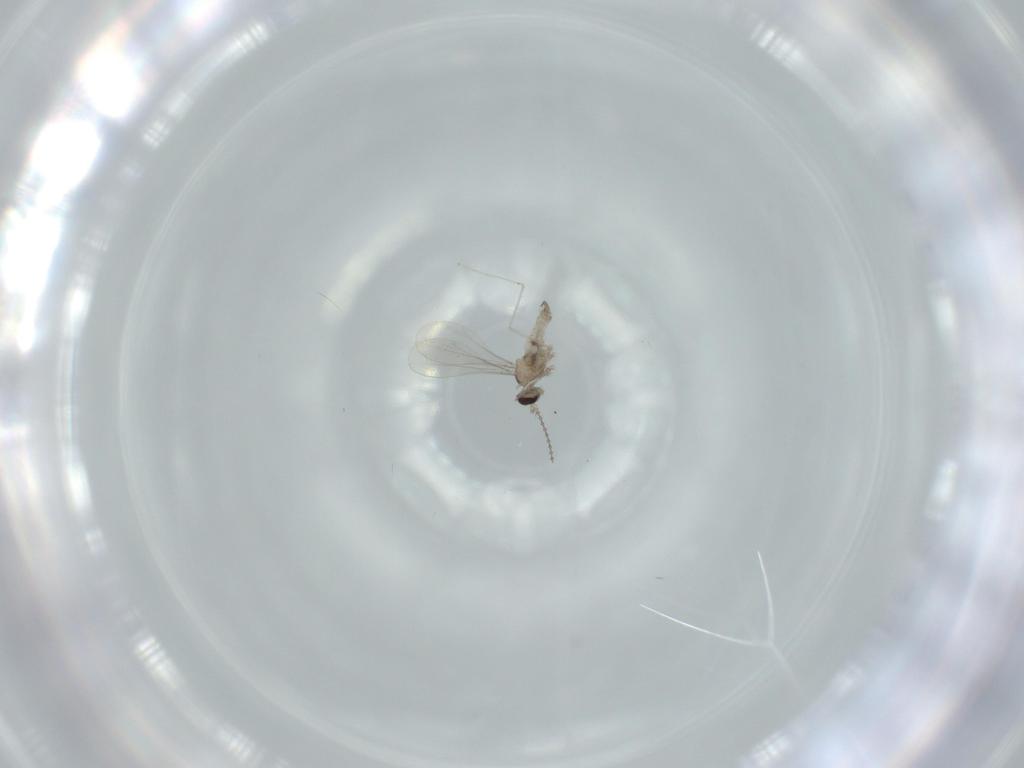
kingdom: Animalia
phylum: Arthropoda
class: Insecta
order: Diptera
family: Cecidomyiidae
